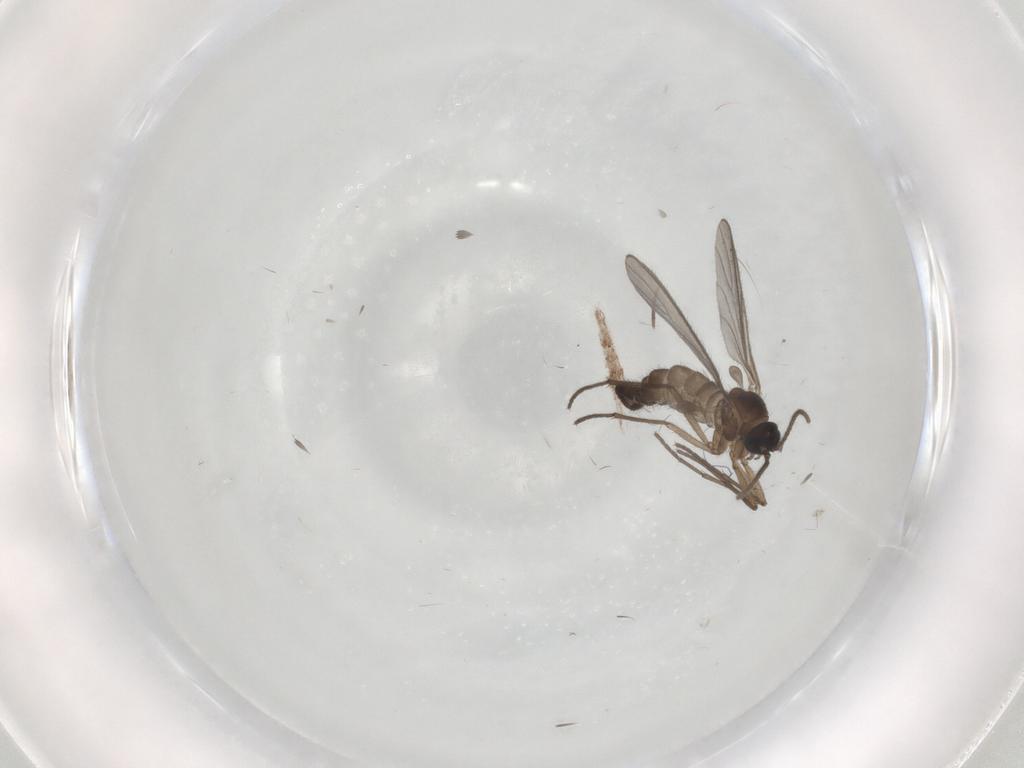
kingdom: Animalia
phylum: Arthropoda
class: Insecta
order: Diptera
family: Sciaridae
